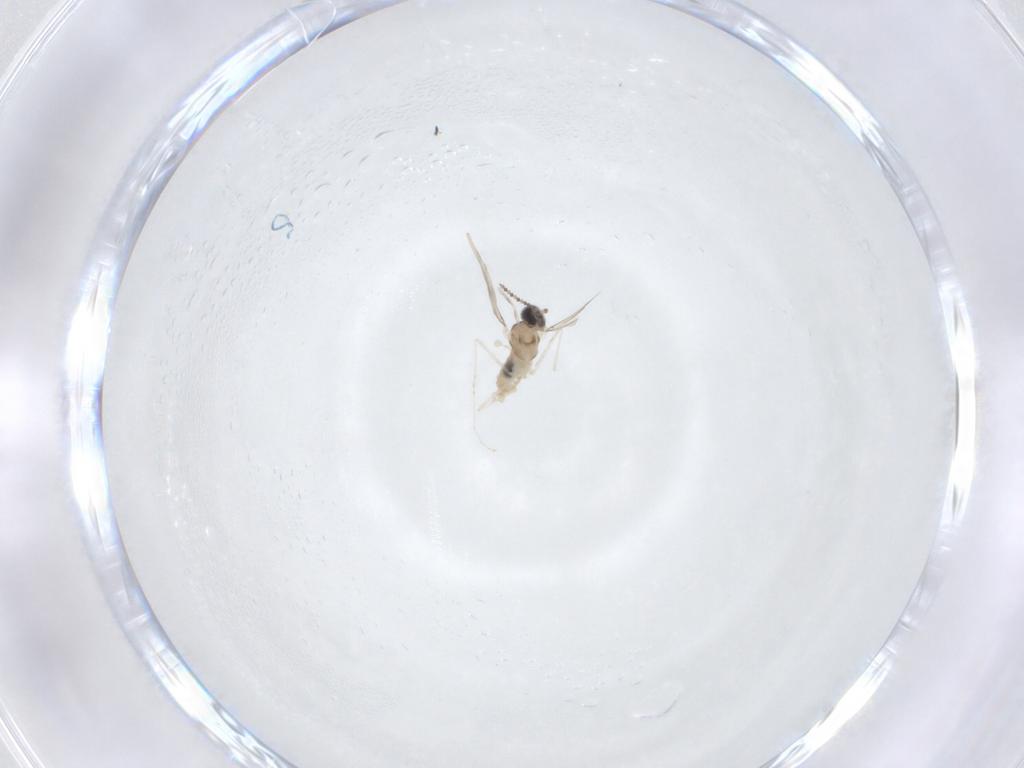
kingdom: Animalia
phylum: Arthropoda
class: Insecta
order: Diptera
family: Cecidomyiidae
